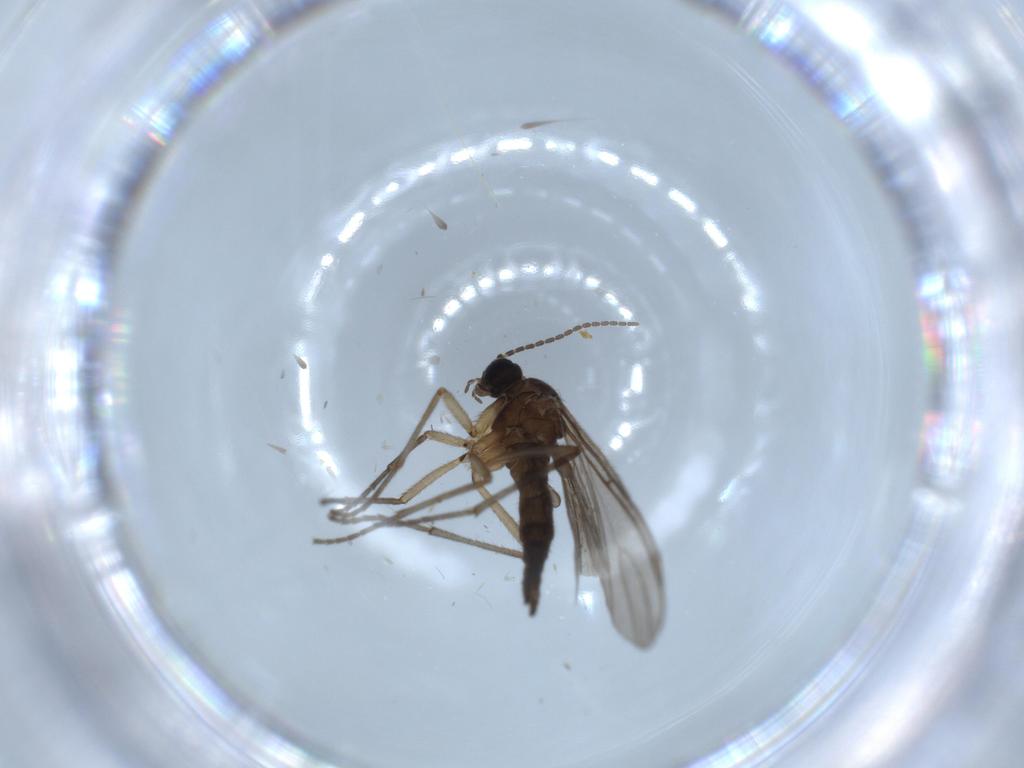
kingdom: Animalia
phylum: Arthropoda
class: Insecta
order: Diptera
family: Sciaridae
